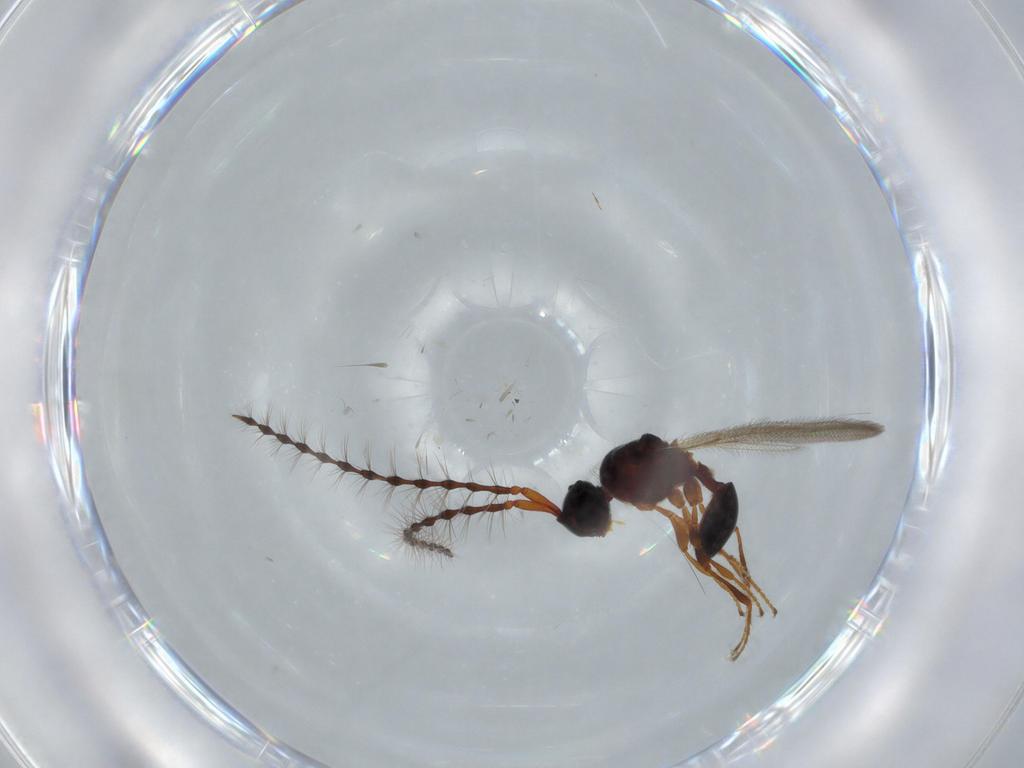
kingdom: Animalia
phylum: Arthropoda
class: Insecta
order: Hymenoptera
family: Diapriidae
